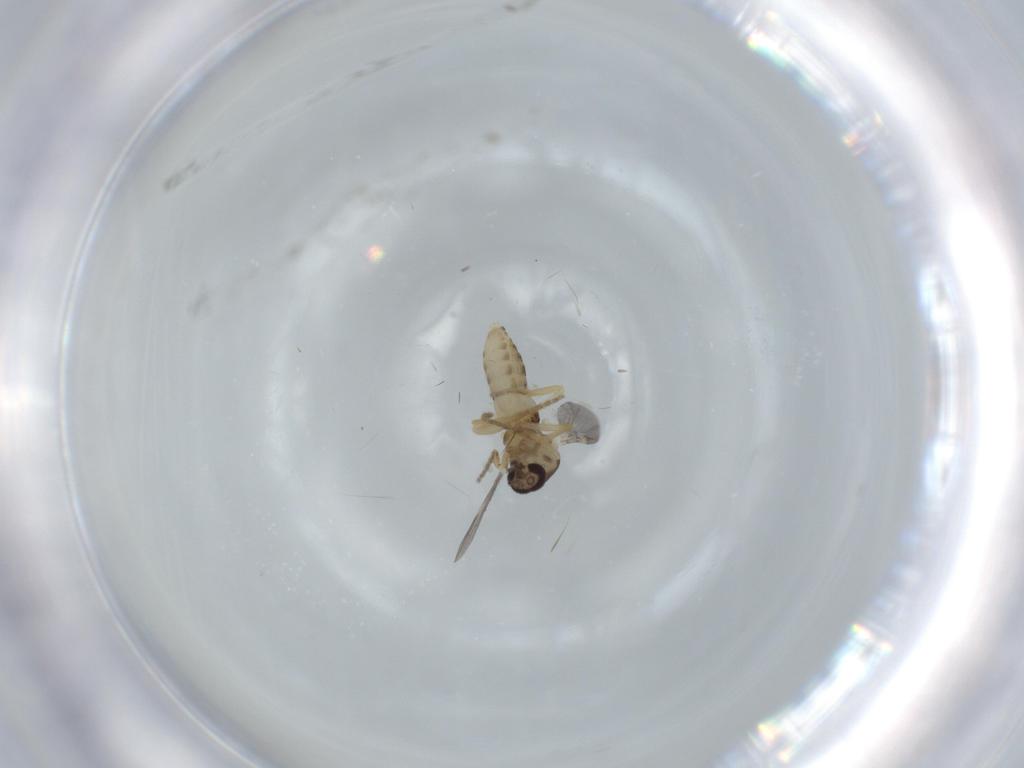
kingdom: Animalia
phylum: Arthropoda
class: Insecta
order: Diptera
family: Ceratopogonidae
